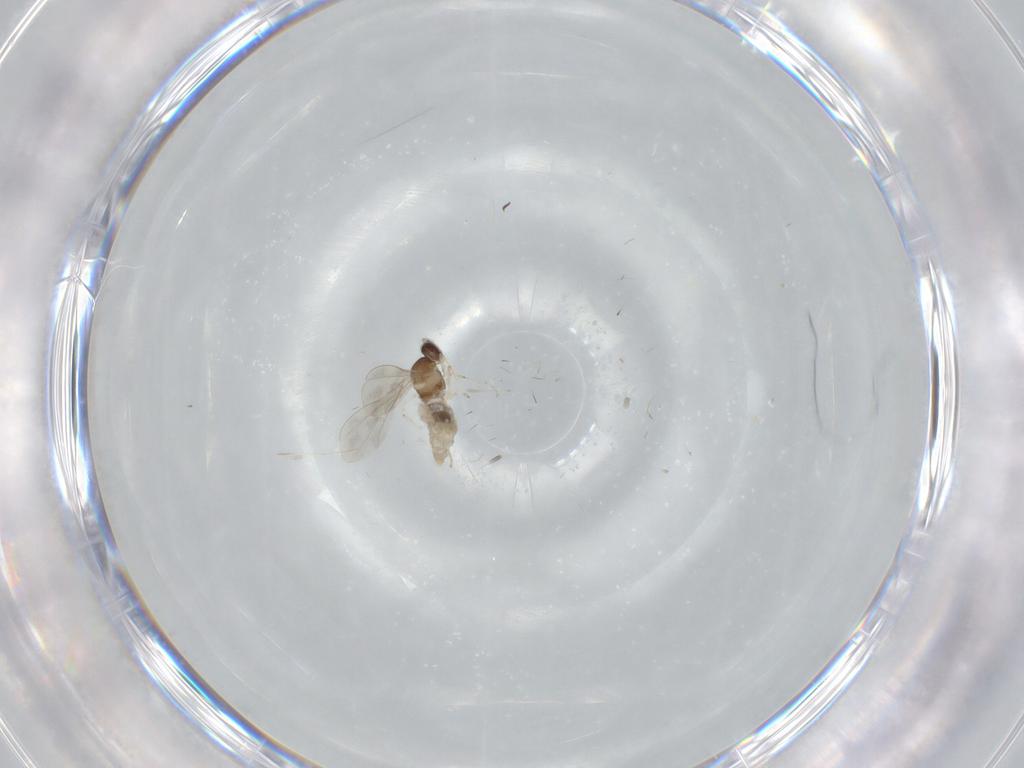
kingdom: Animalia
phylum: Arthropoda
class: Insecta
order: Diptera
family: Cecidomyiidae
